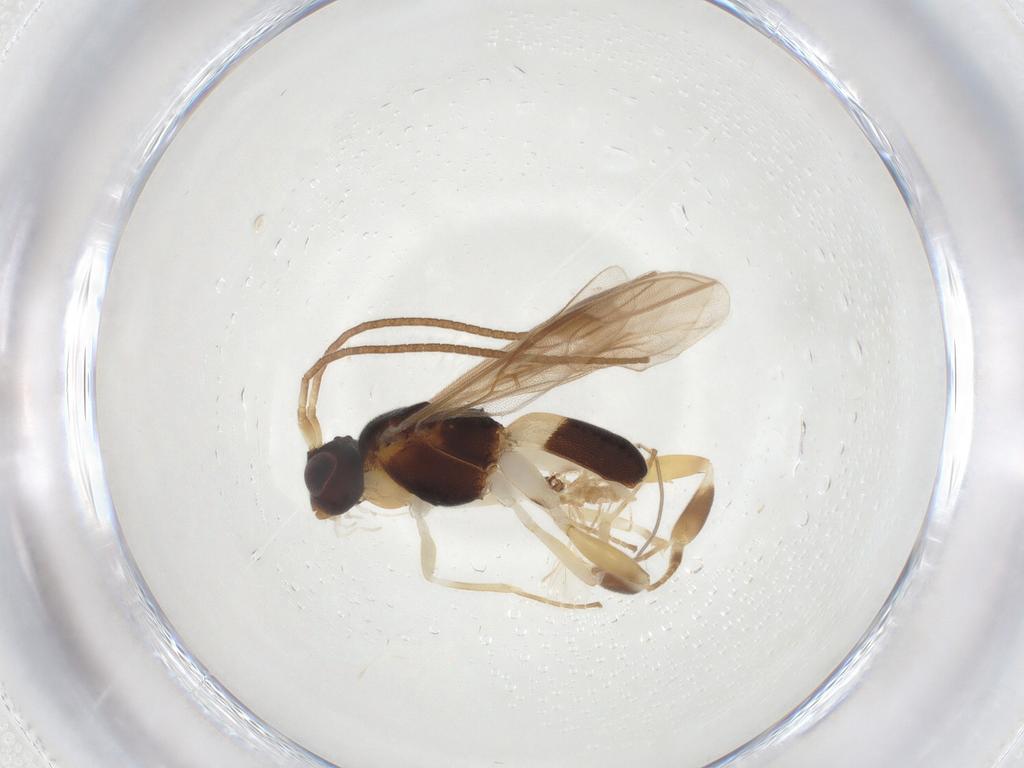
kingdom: Animalia
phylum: Arthropoda
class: Insecta
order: Hymenoptera
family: Braconidae
